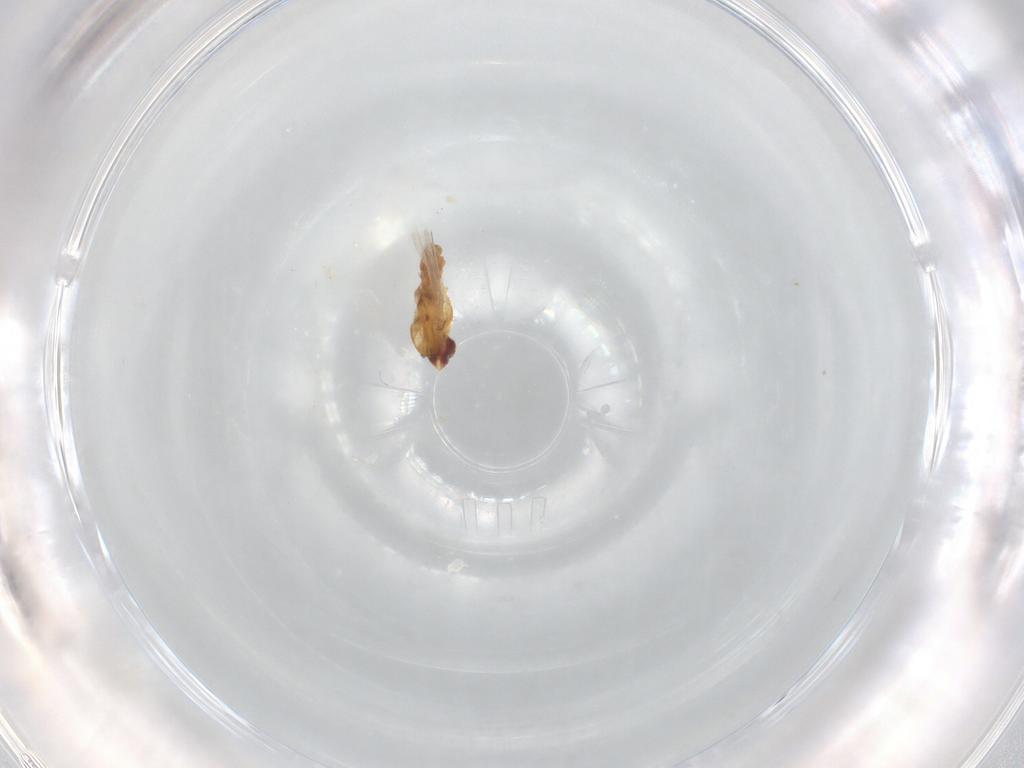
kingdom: Animalia
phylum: Arthropoda
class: Insecta
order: Diptera
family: Periscelididae
